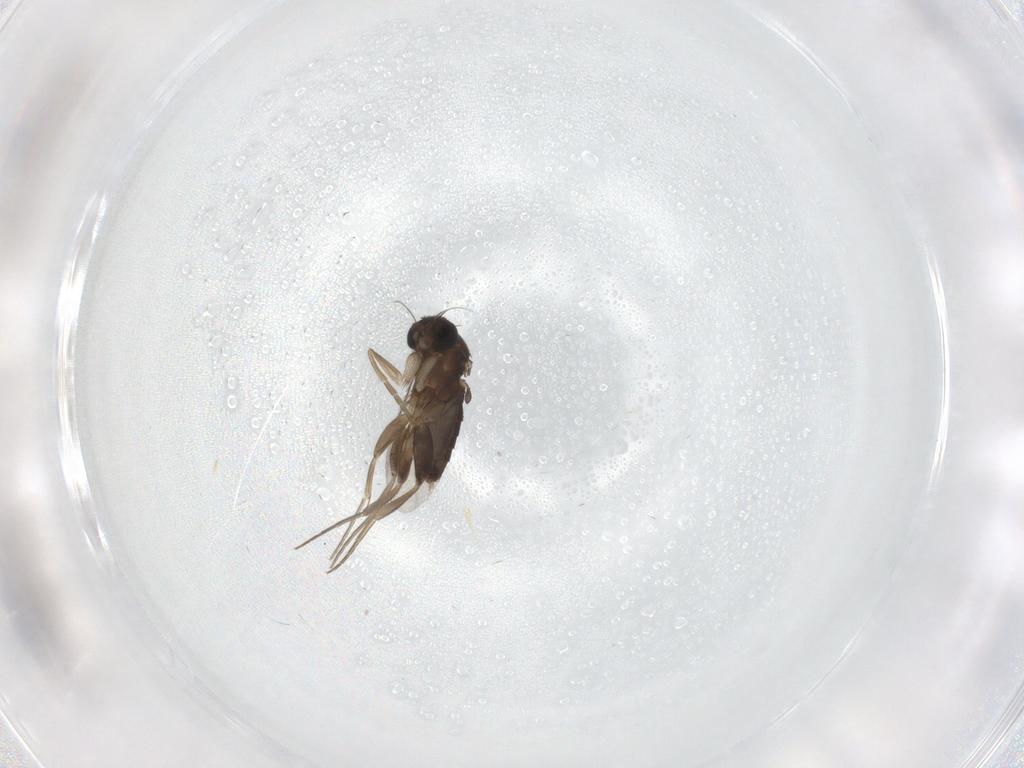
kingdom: Animalia
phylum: Arthropoda
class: Insecta
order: Diptera
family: Phoridae
